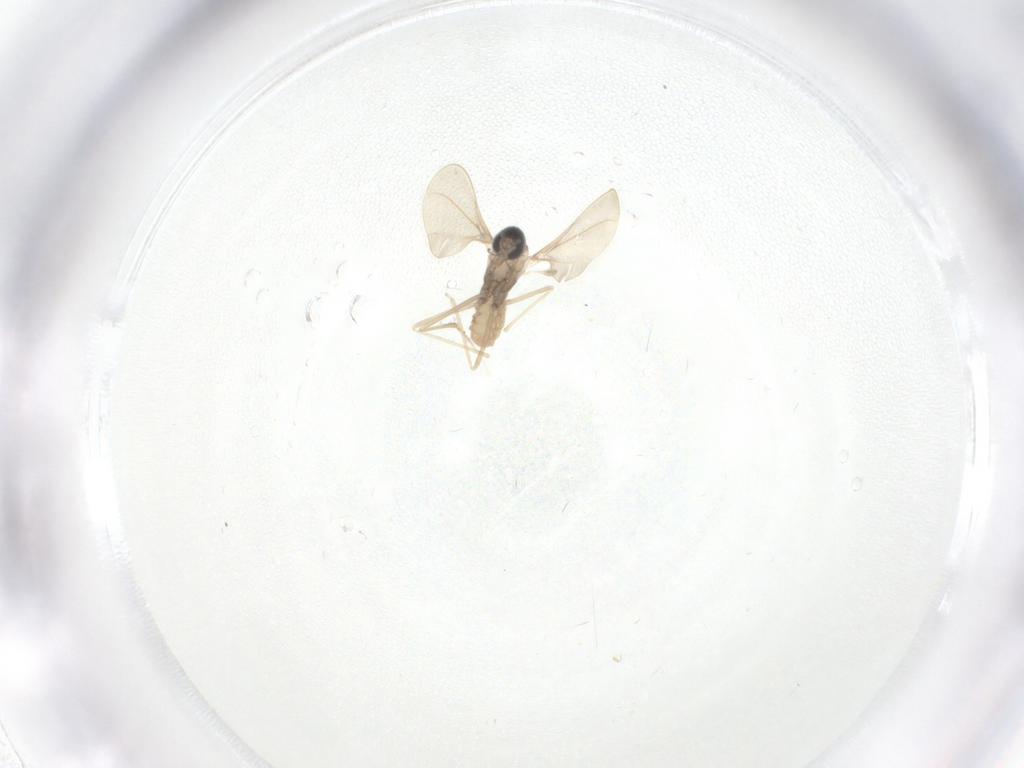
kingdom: Animalia
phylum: Arthropoda
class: Insecta
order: Diptera
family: Cecidomyiidae
